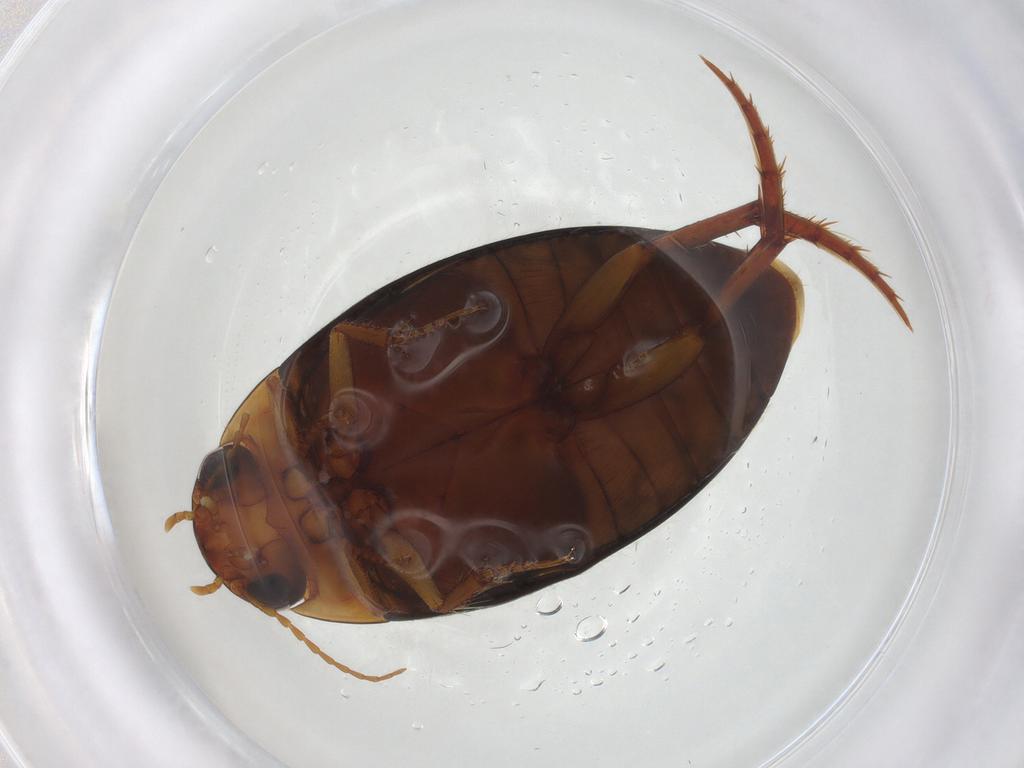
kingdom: Animalia
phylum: Arthropoda
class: Insecta
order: Coleoptera
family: Dytiscidae
